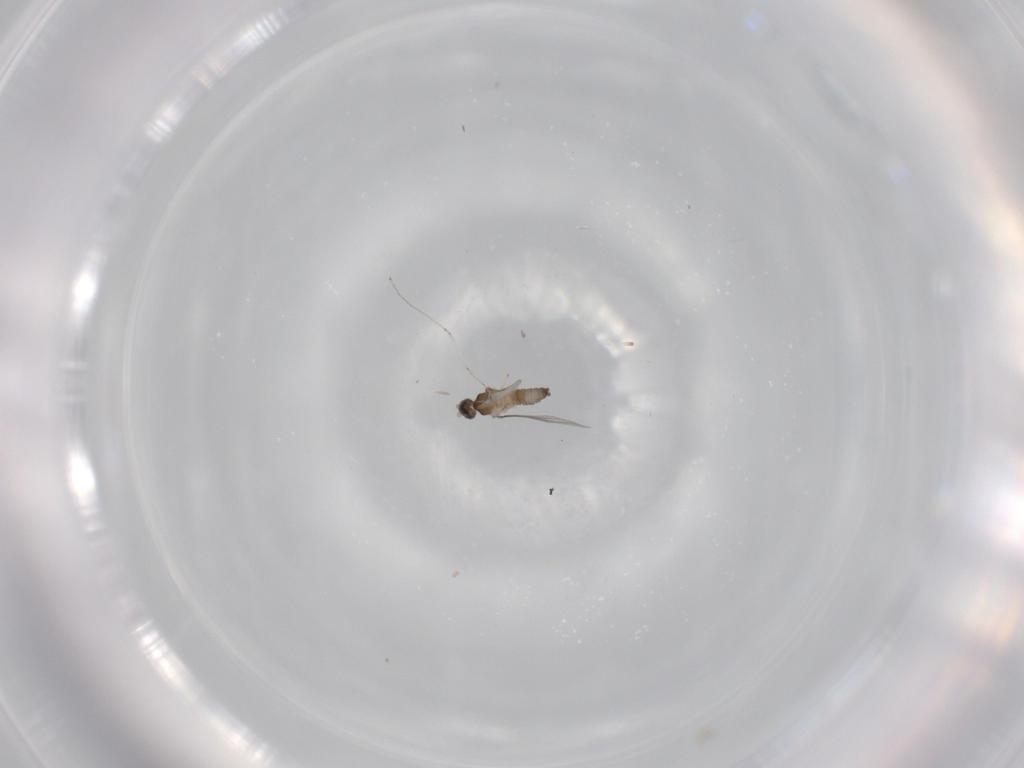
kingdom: Animalia
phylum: Arthropoda
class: Insecta
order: Diptera
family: Cecidomyiidae
